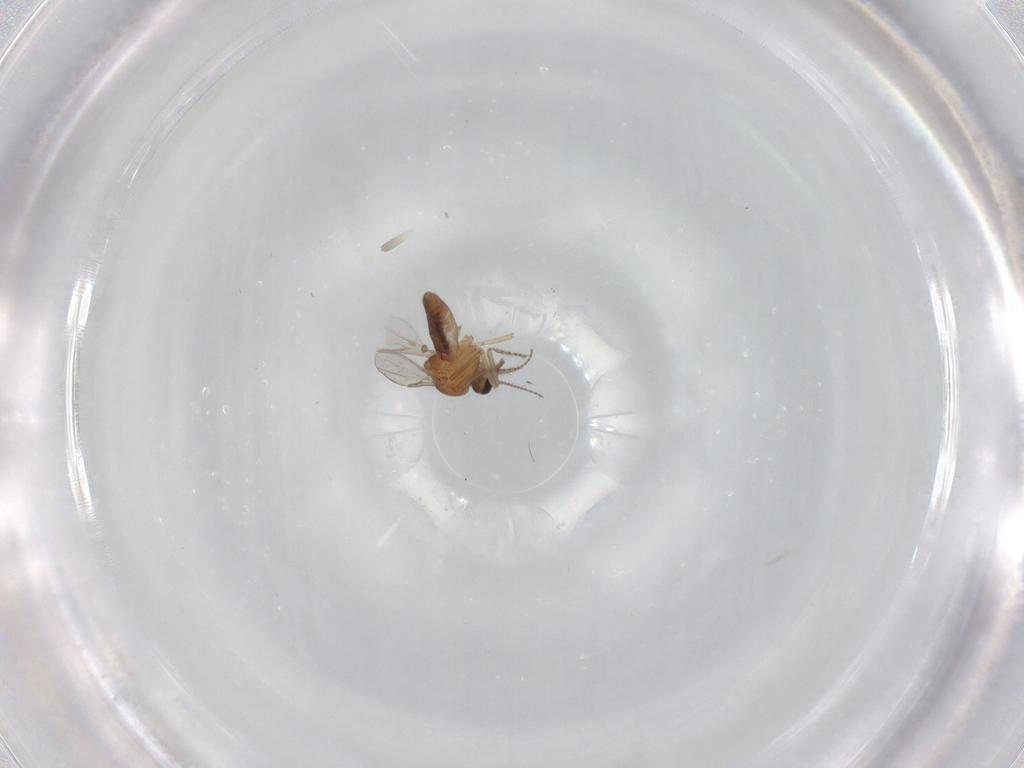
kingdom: Animalia
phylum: Arthropoda
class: Insecta
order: Diptera
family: Ceratopogonidae
